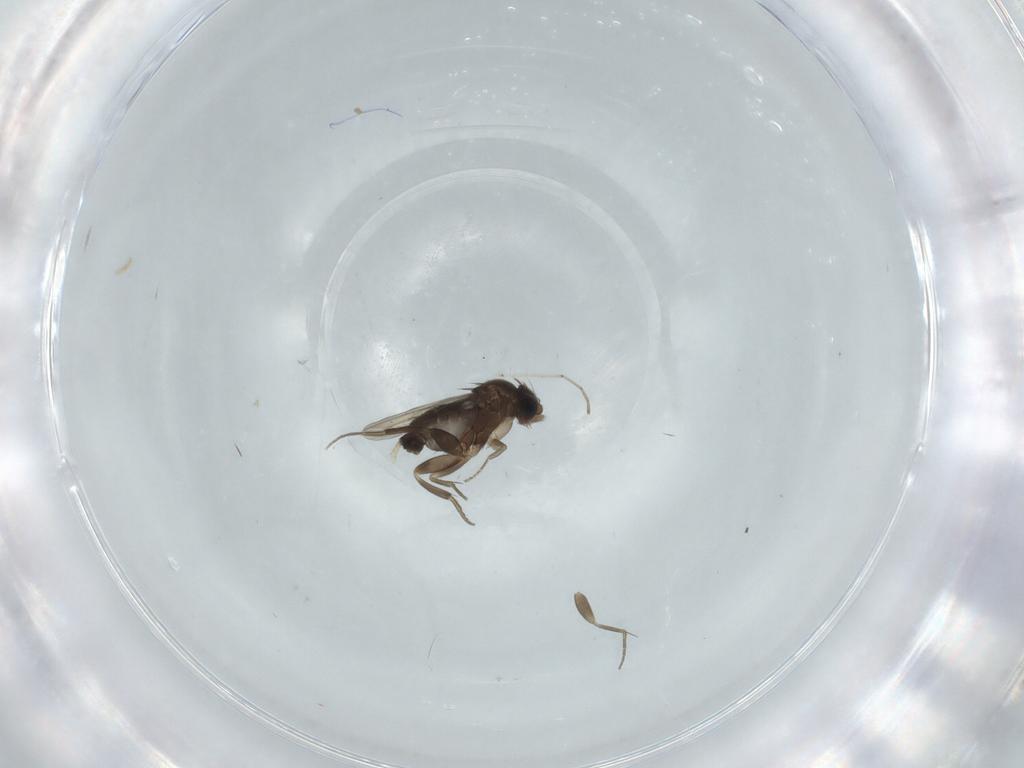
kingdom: Animalia
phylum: Arthropoda
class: Insecta
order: Diptera
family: Phoridae
